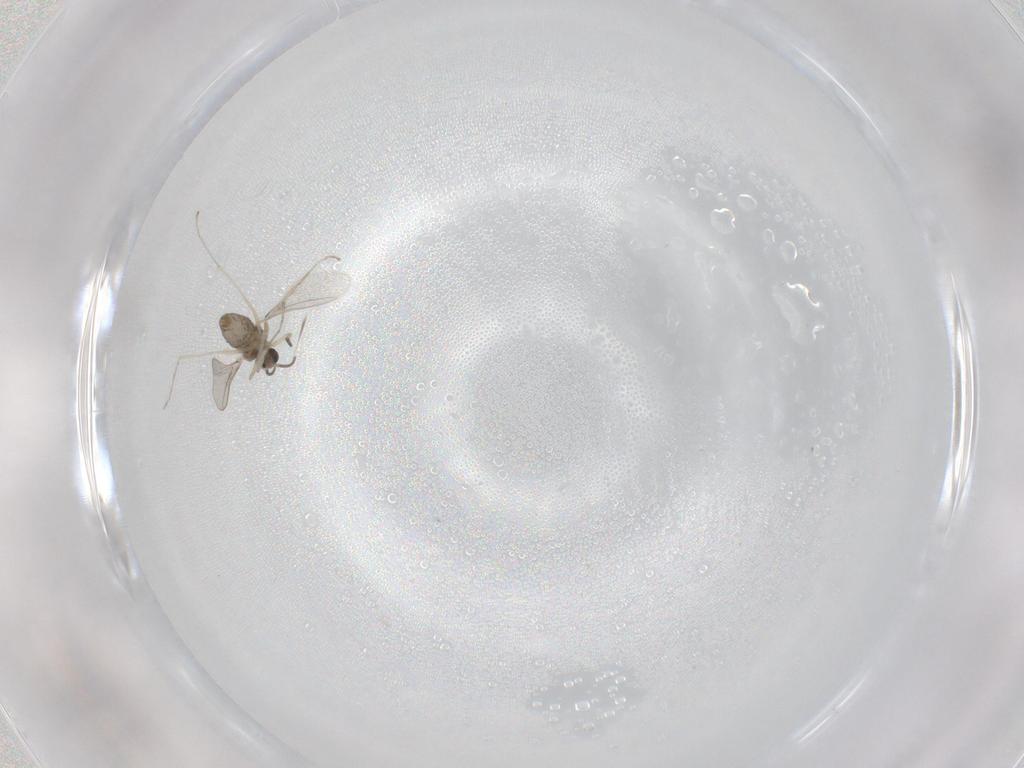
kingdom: Animalia
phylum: Arthropoda
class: Insecta
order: Diptera
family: Cecidomyiidae
